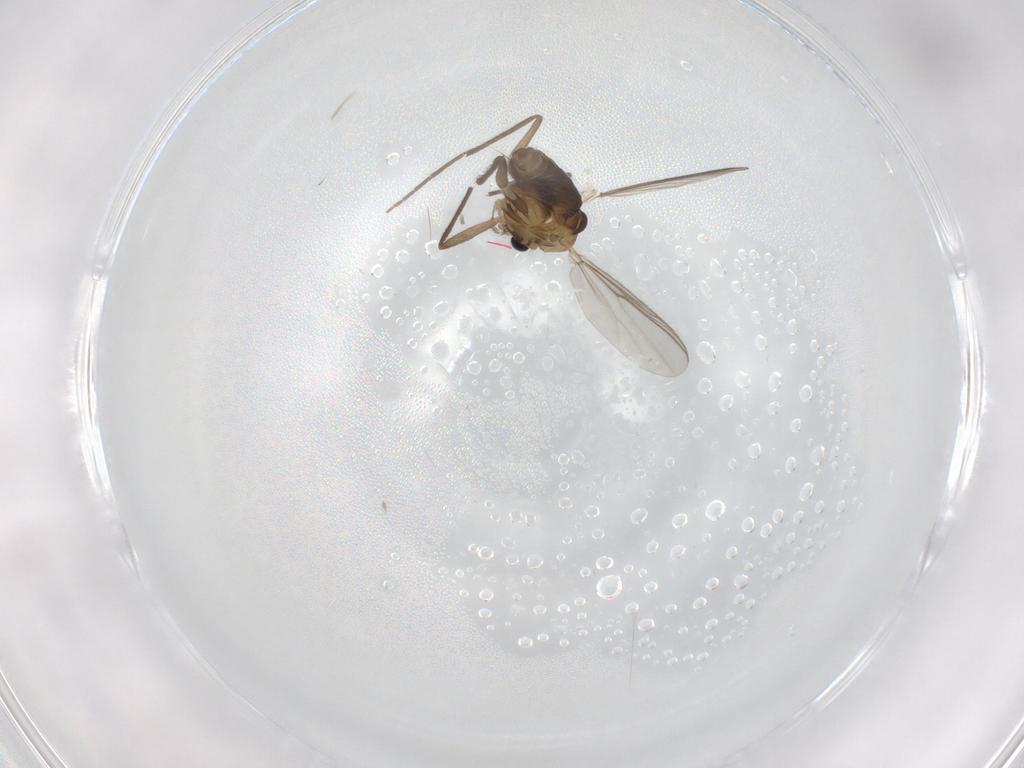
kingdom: Animalia
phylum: Arthropoda
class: Insecta
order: Diptera
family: Chironomidae
